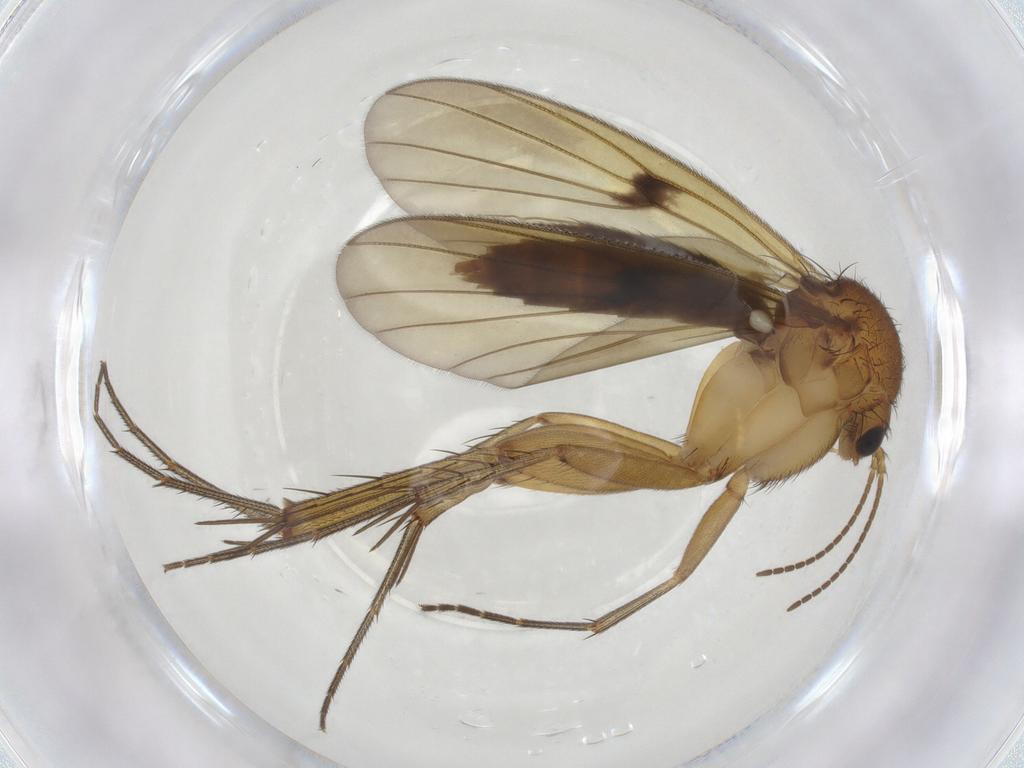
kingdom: Animalia
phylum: Arthropoda
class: Insecta
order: Diptera
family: Mycetophilidae
